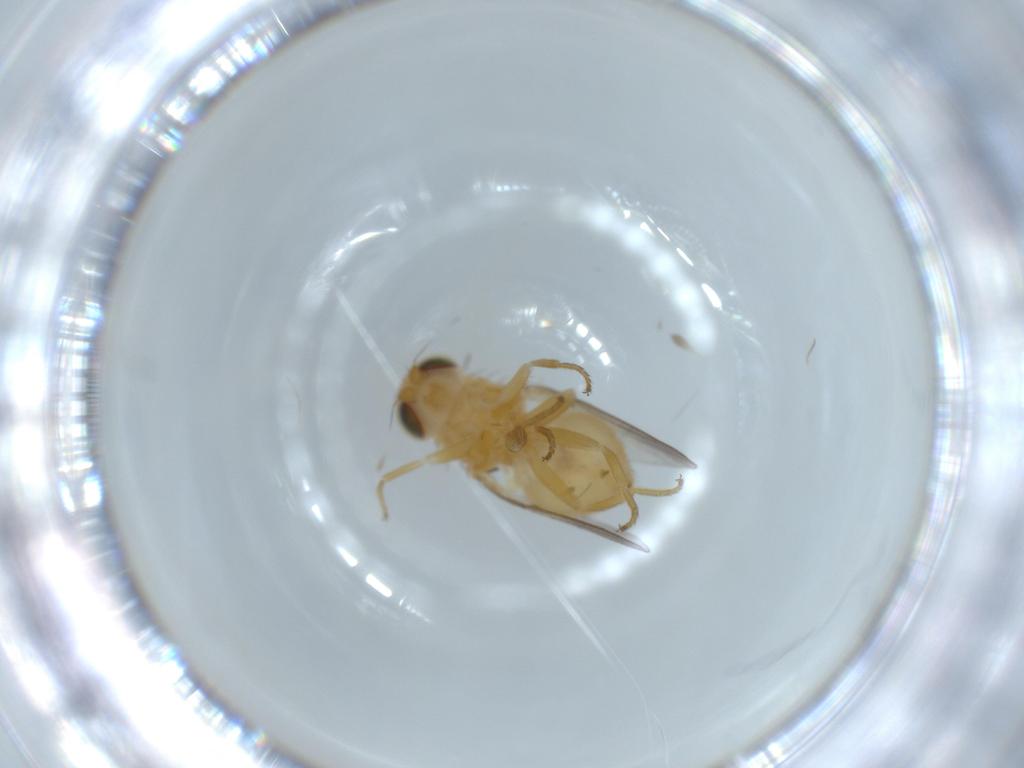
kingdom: Animalia
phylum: Arthropoda
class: Insecta
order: Diptera
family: Chloropidae
